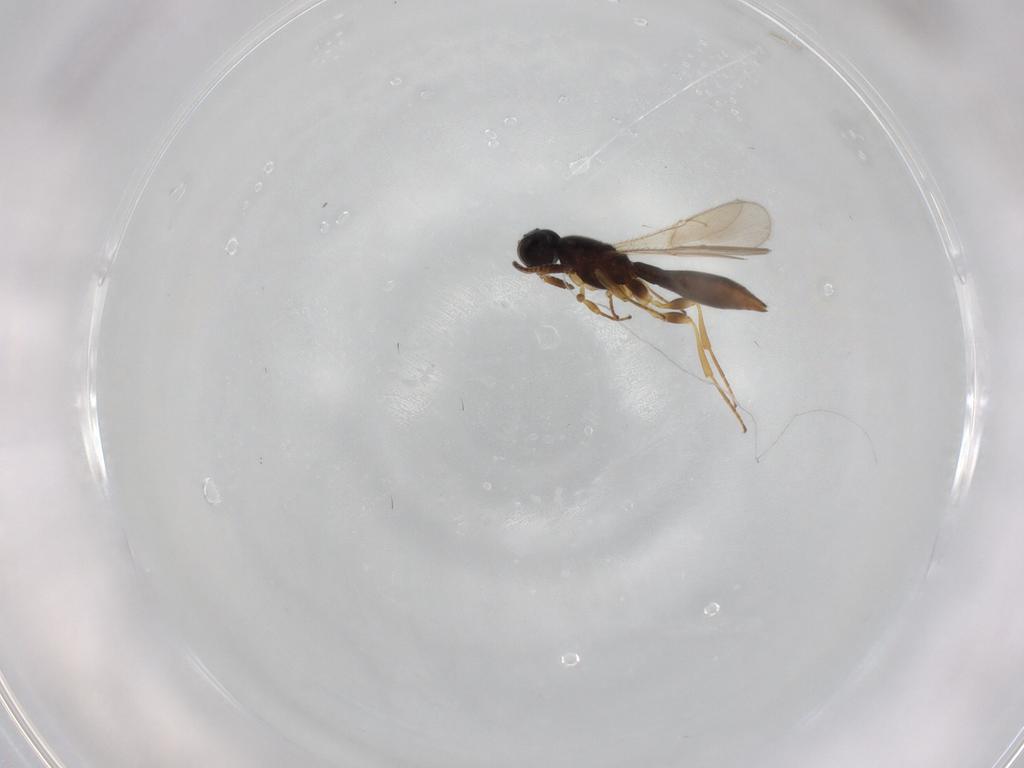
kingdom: Animalia
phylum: Arthropoda
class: Insecta
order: Hymenoptera
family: Scelionidae
